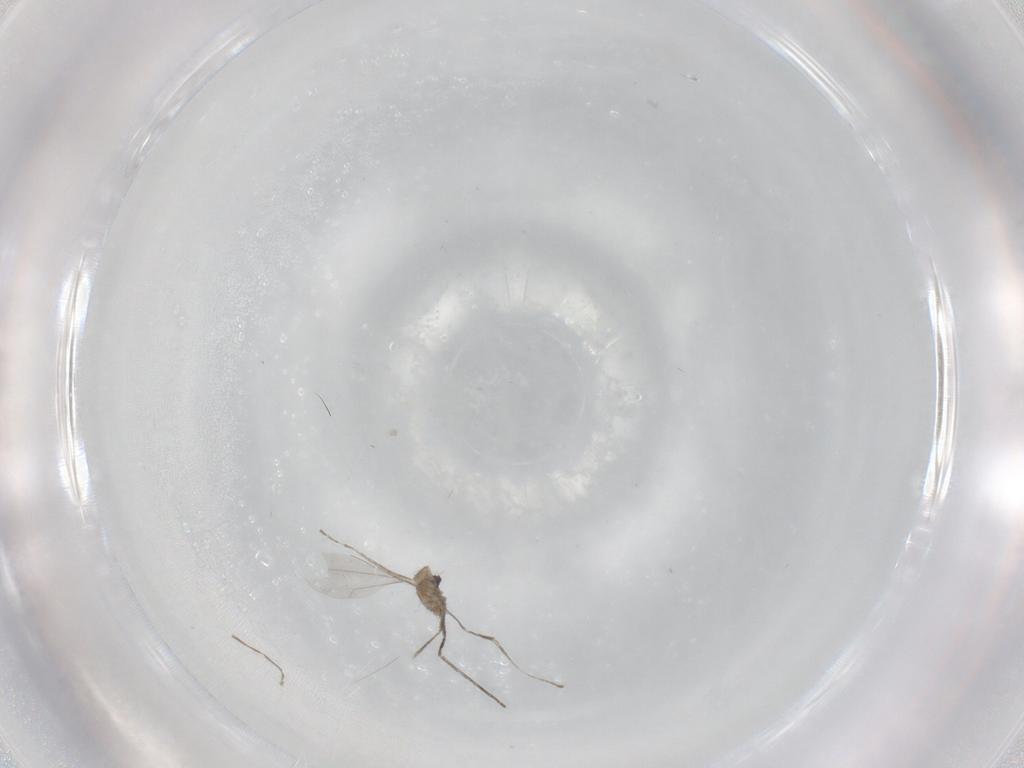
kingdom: Animalia
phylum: Arthropoda
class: Insecta
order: Diptera
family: Cecidomyiidae
